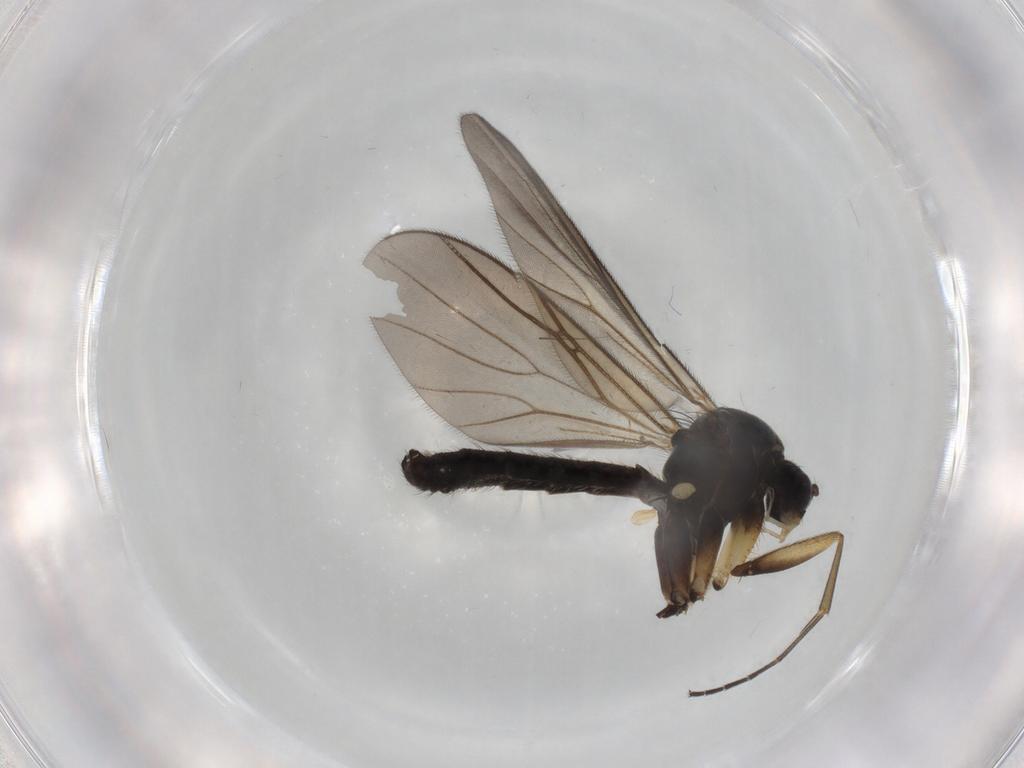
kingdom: Animalia
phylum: Arthropoda
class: Insecta
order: Diptera
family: Mycetophilidae
